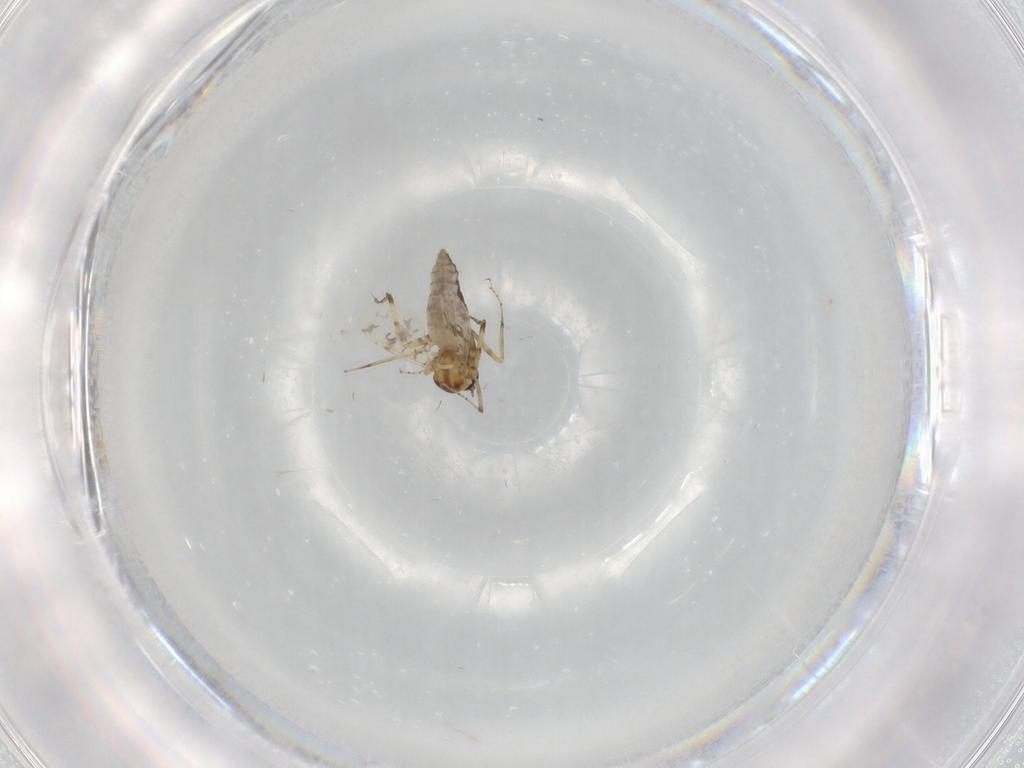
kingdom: Animalia
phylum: Arthropoda
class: Insecta
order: Diptera
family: Ceratopogonidae
